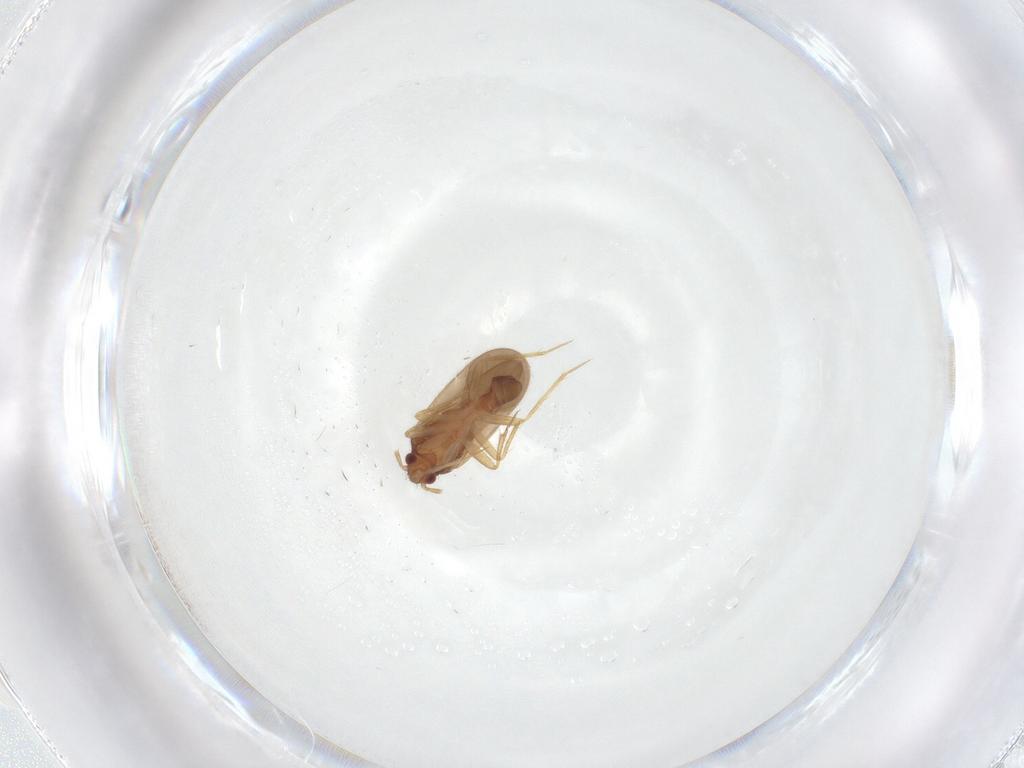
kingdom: Animalia
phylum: Arthropoda
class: Insecta
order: Hemiptera
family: Ceratocombidae
